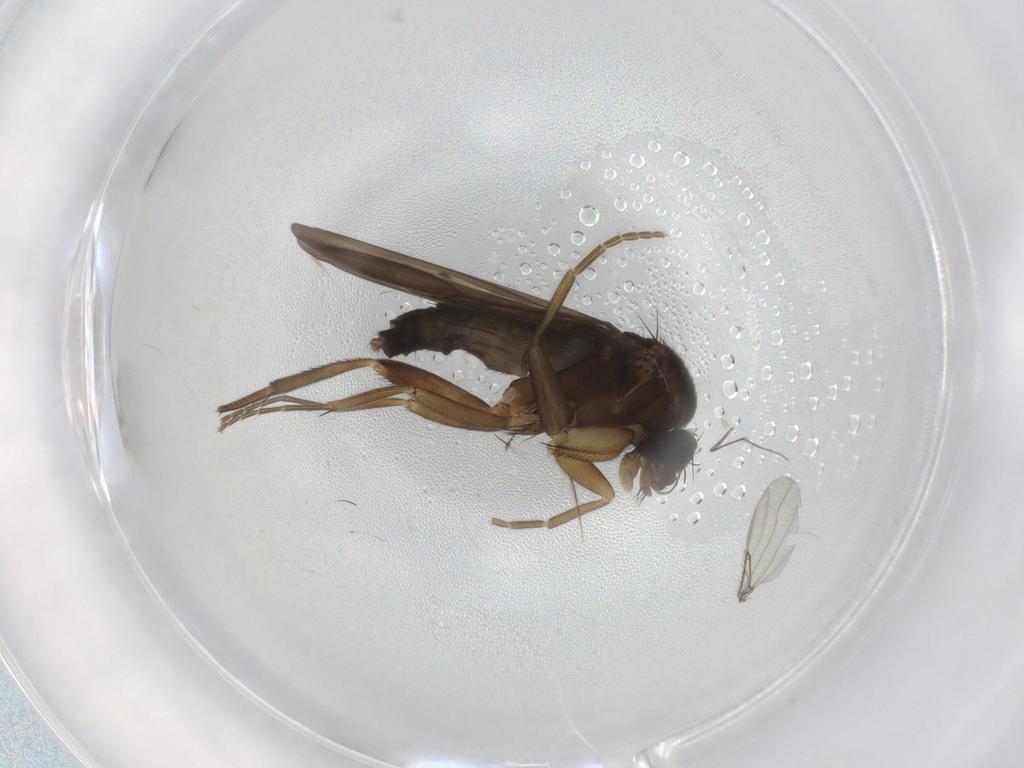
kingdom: Animalia
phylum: Arthropoda
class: Insecta
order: Diptera
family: Phoridae
